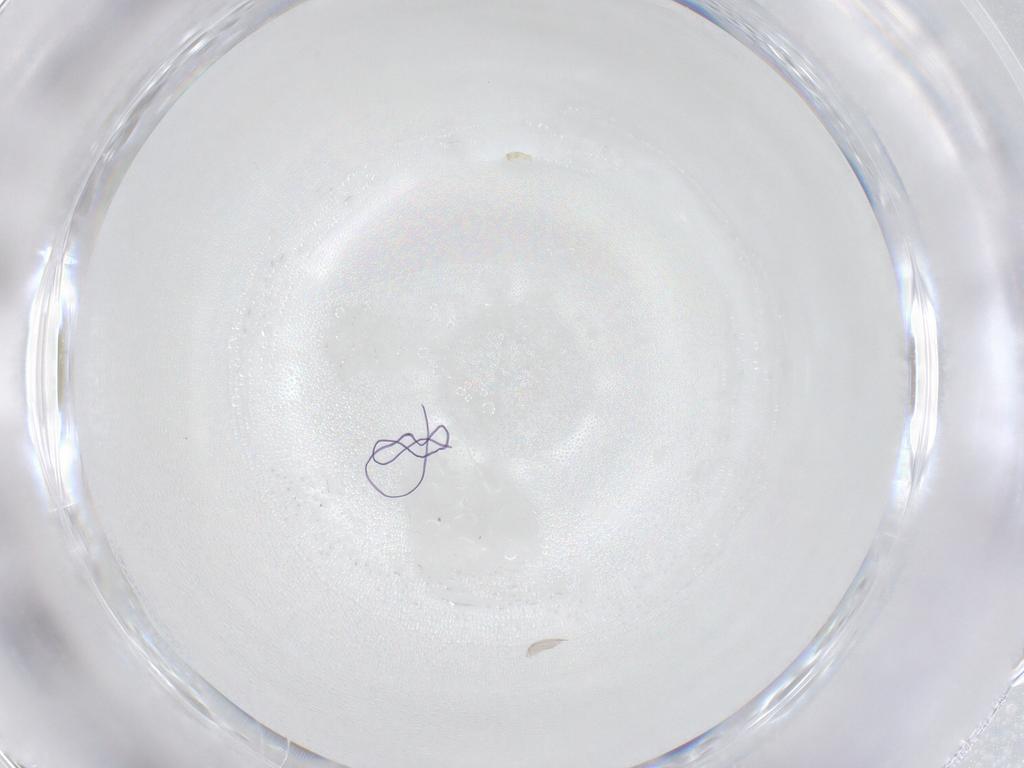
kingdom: Animalia
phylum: Arthropoda
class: Insecta
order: Diptera
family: Cecidomyiidae
